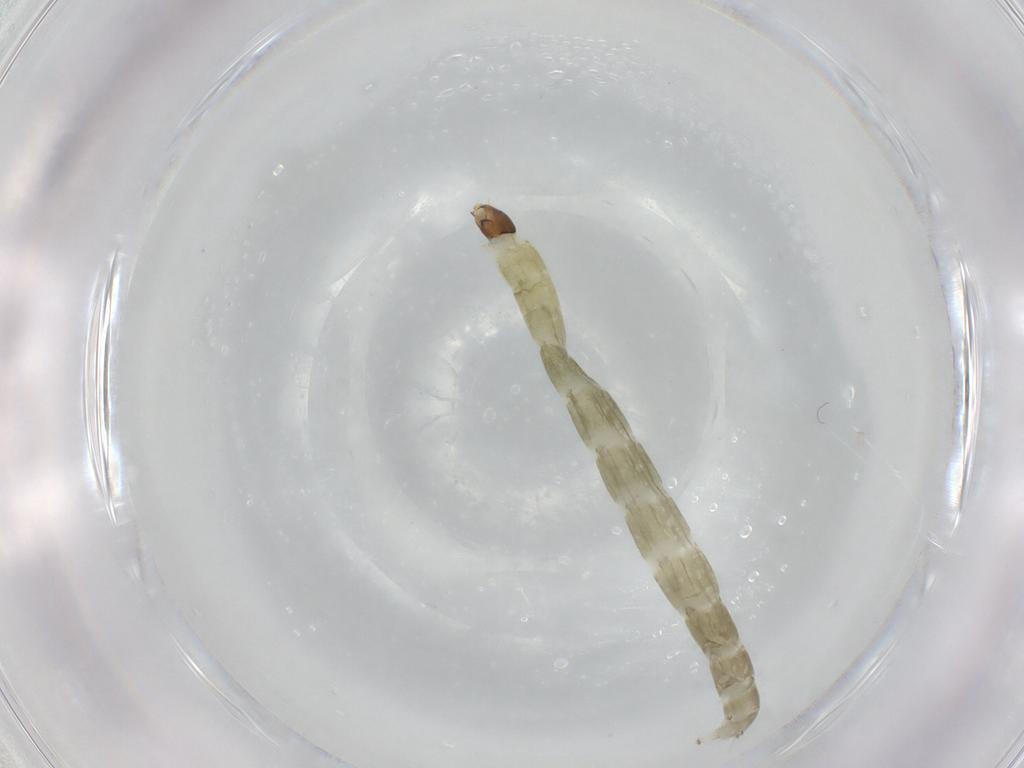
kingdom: Animalia
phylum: Arthropoda
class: Insecta
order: Diptera
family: Chironomidae
